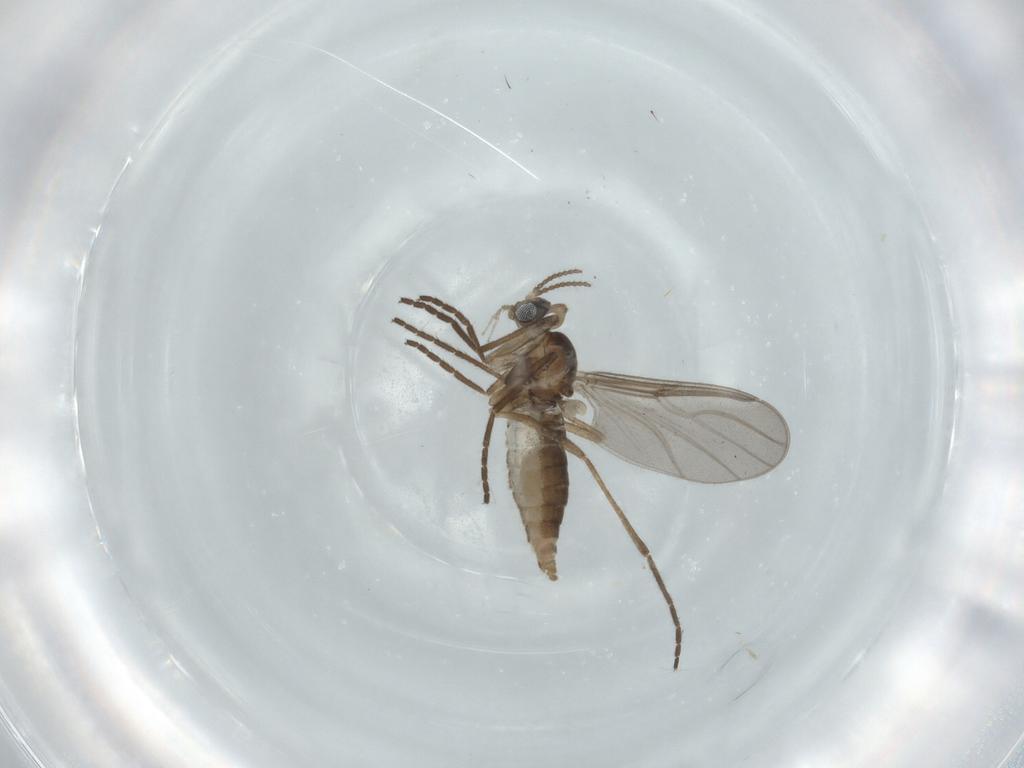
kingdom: Animalia
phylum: Arthropoda
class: Insecta
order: Diptera
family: Cecidomyiidae
